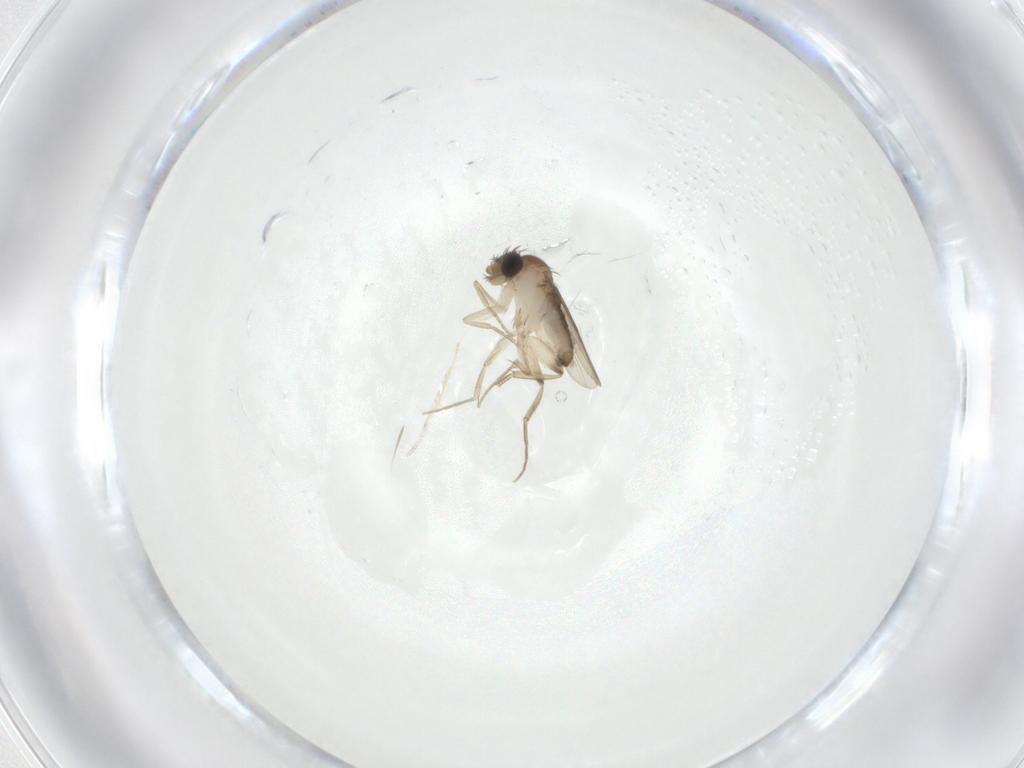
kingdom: Animalia
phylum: Arthropoda
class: Insecta
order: Diptera
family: Phoridae
